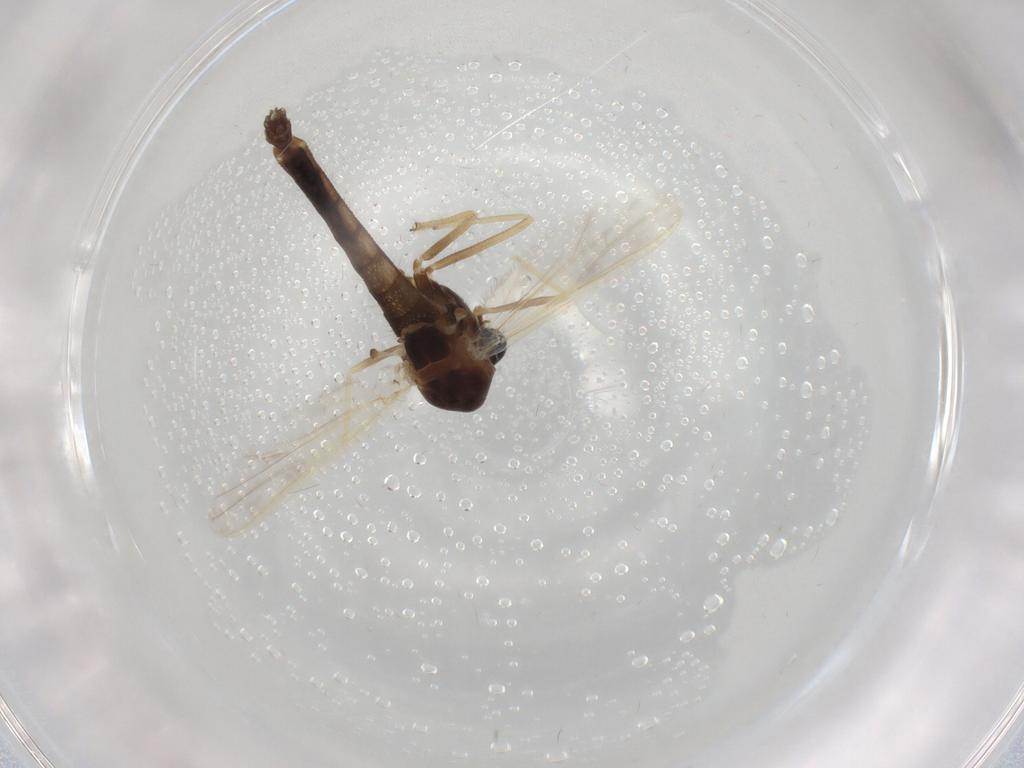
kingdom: Animalia
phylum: Arthropoda
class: Insecta
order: Diptera
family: Chironomidae
